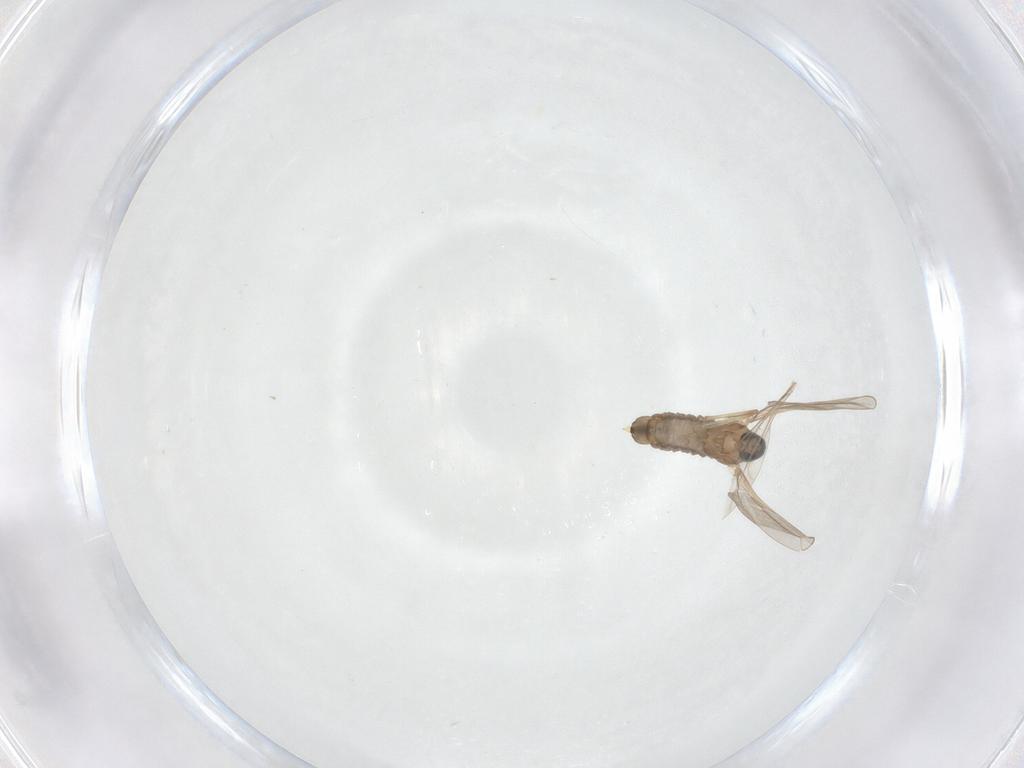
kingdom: Animalia
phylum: Arthropoda
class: Insecta
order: Diptera
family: Cecidomyiidae
